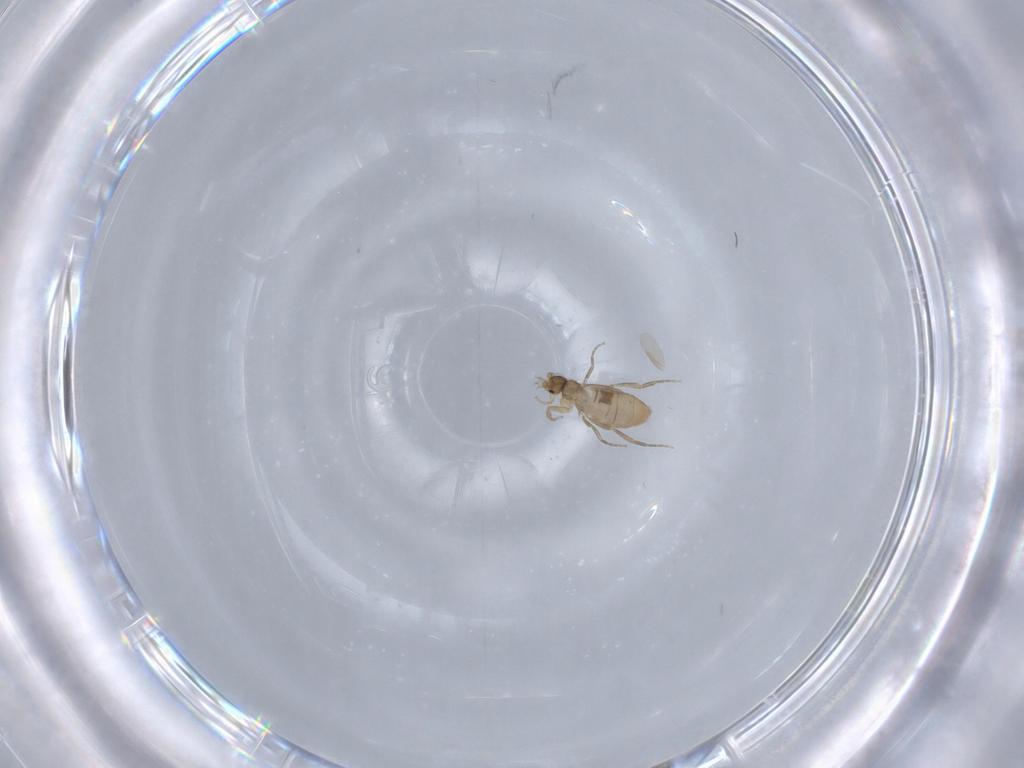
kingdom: Animalia
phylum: Arthropoda
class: Insecta
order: Diptera
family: Phoridae
